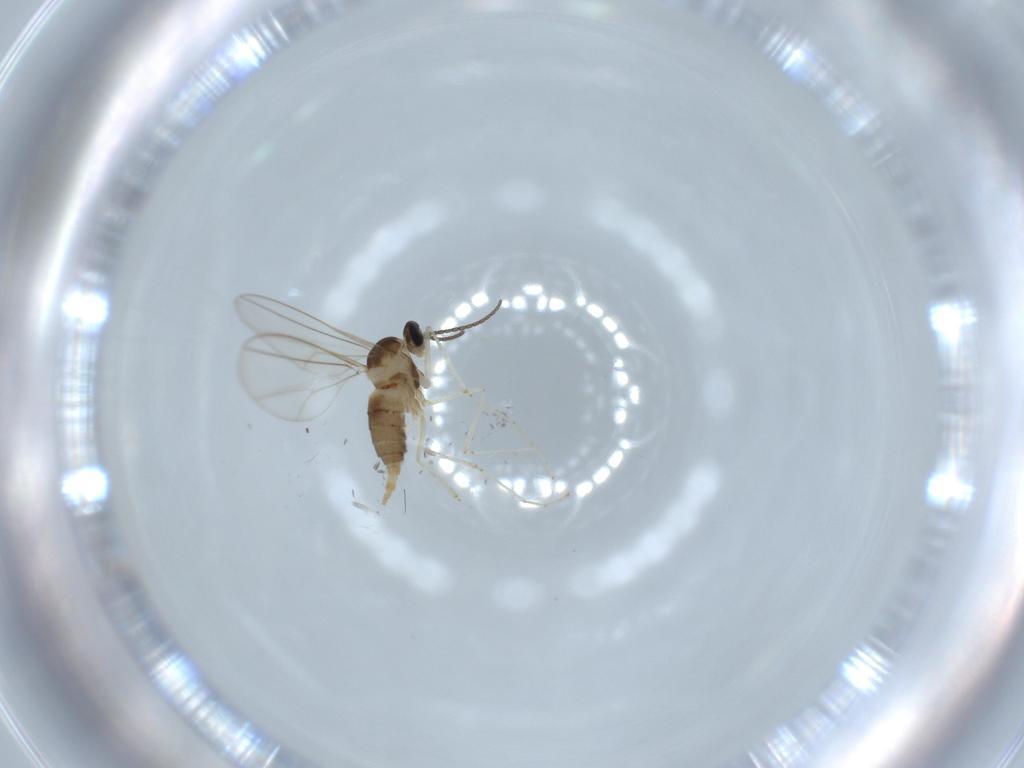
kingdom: Animalia
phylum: Arthropoda
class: Insecta
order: Diptera
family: Cecidomyiidae
